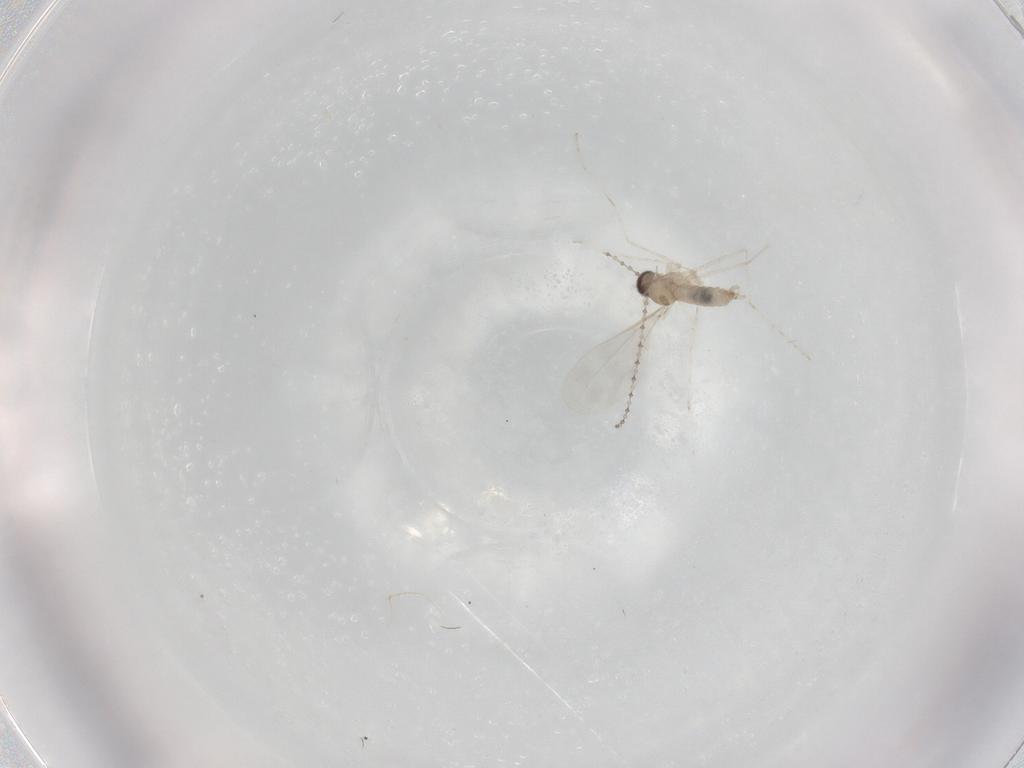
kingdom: Animalia
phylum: Arthropoda
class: Insecta
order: Diptera
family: Cecidomyiidae
